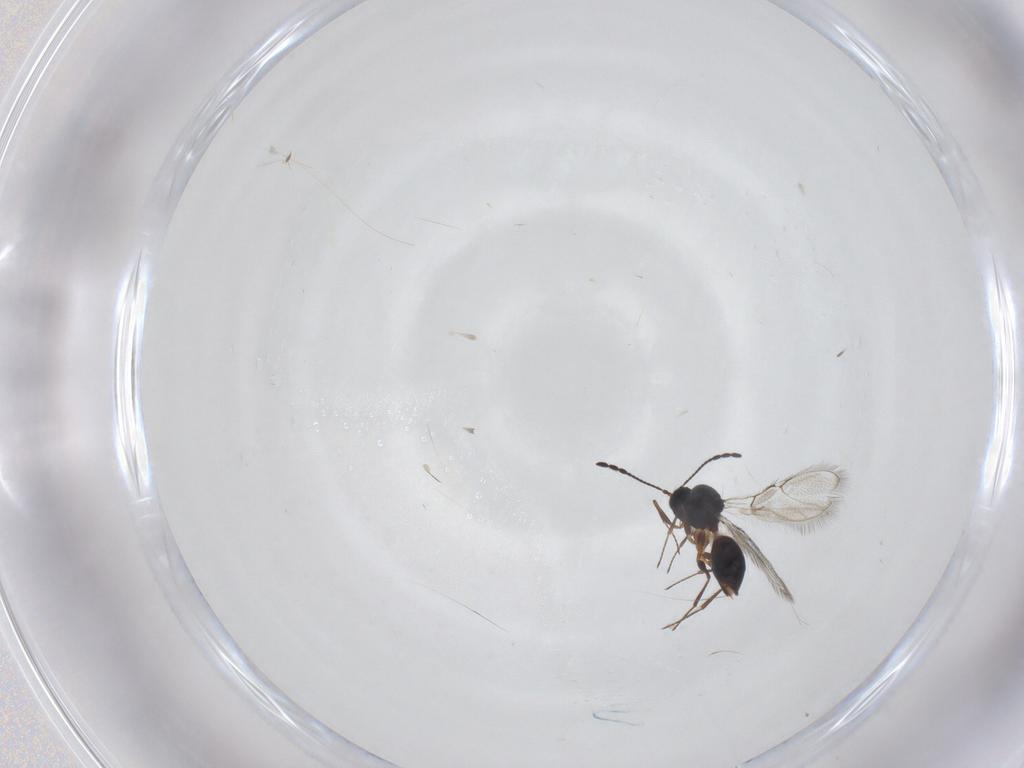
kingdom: Animalia
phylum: Arthropoda
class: Insecta
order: Hymenoptera
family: Figitidae
